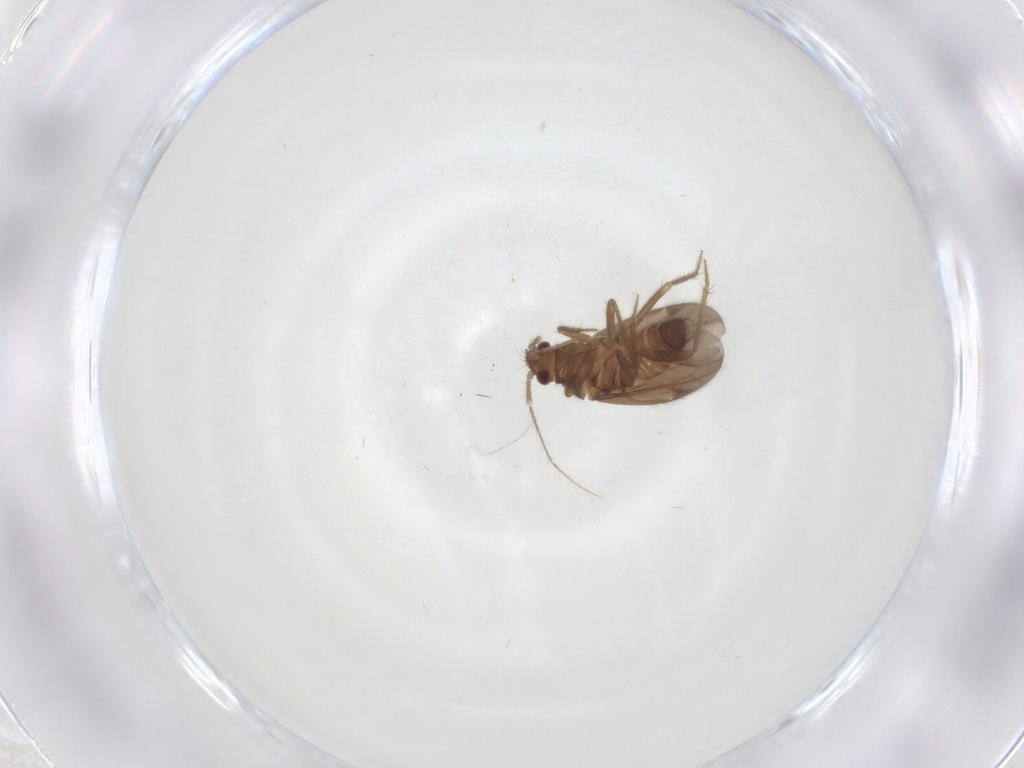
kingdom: Animalia
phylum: Arthropoda
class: Insecta
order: Hemiptera
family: Ceratocombidae
